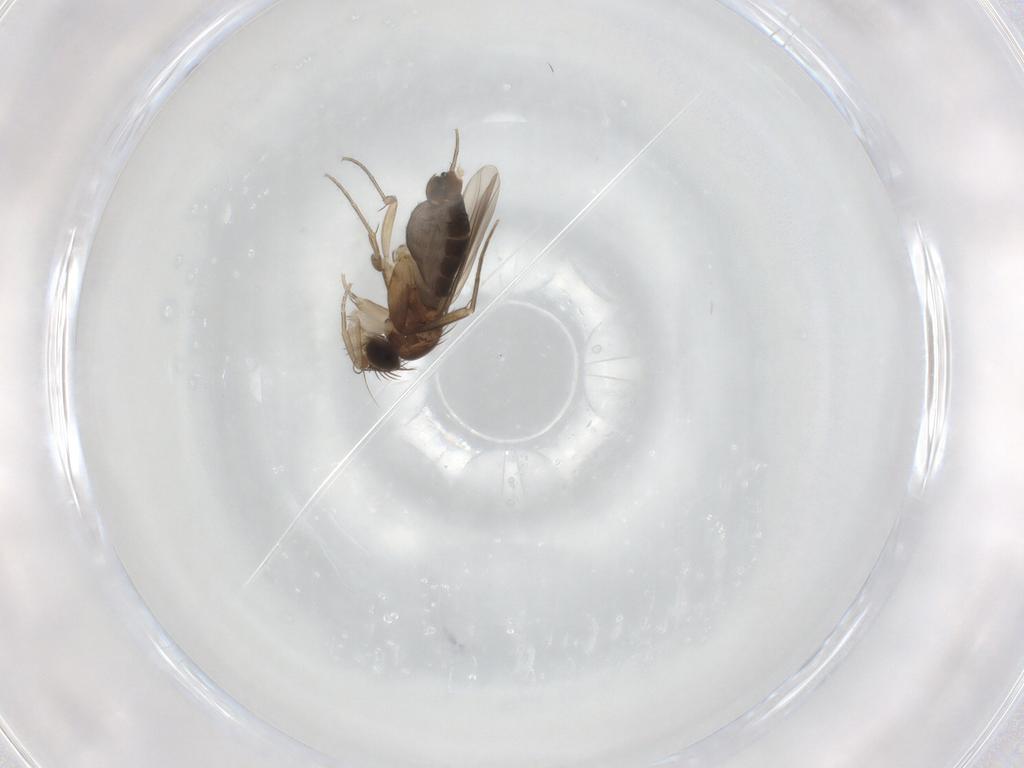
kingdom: Animalia
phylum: Arthropoda
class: Insecta
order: Diptera
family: Phoridae
